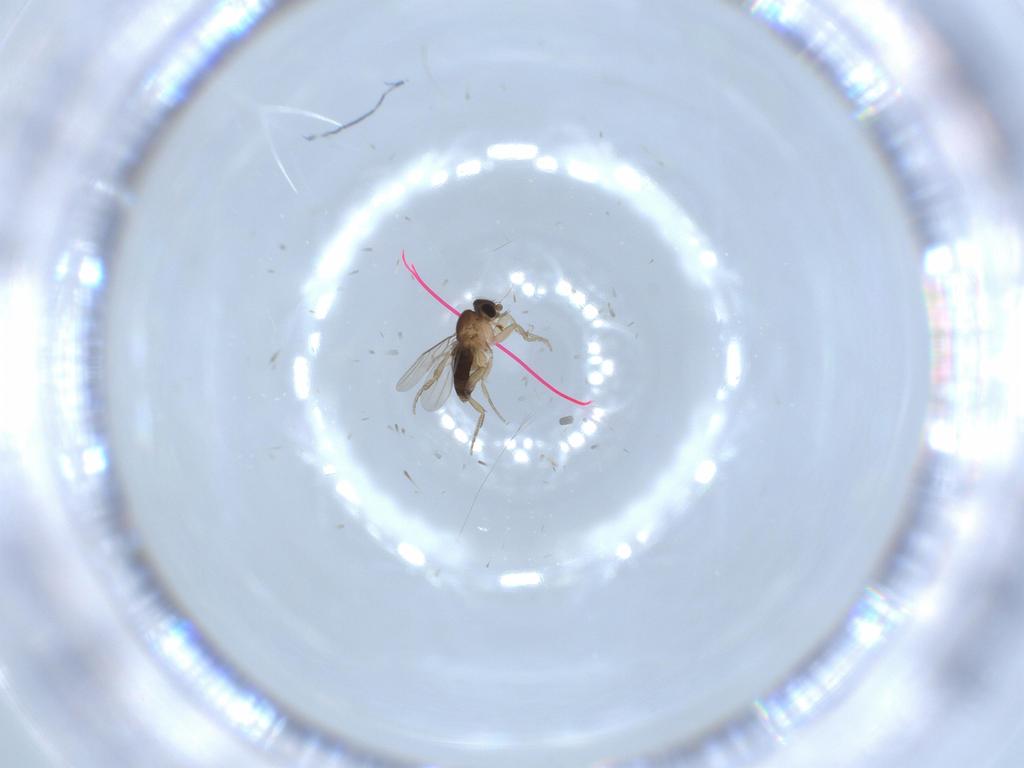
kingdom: Animalia
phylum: Arthropoda
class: Insecta
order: Diptera
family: Phoridae
